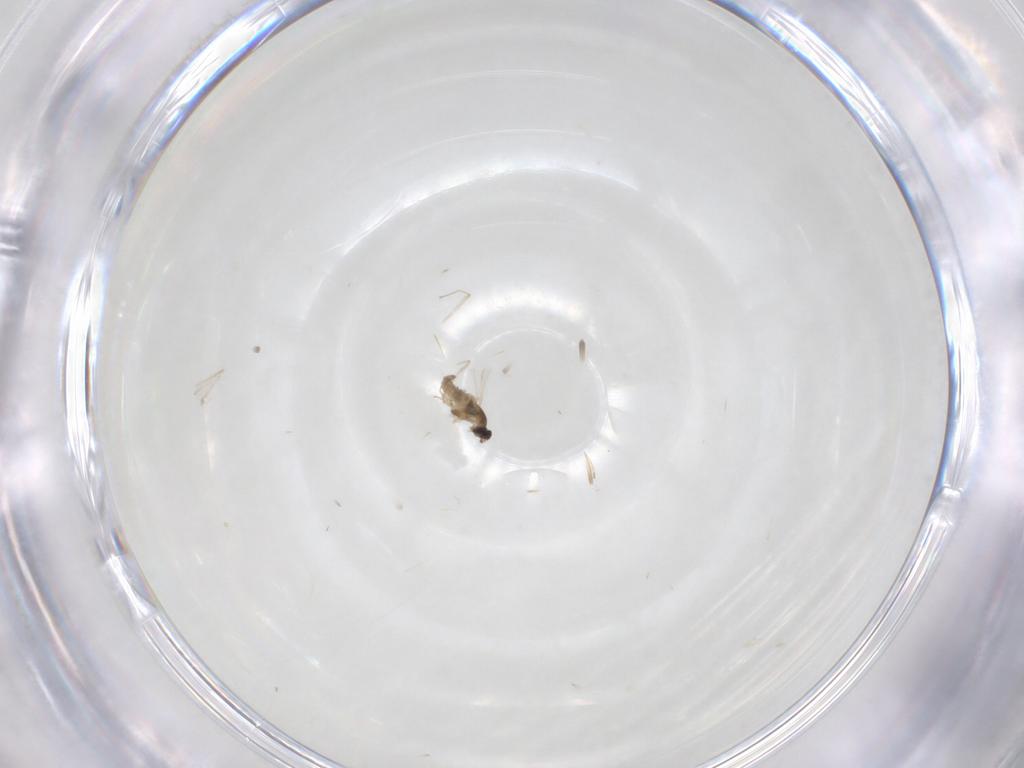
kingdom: Animalia
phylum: Arthropoda
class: Insecta
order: Diptera
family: Cecidomyiidae
